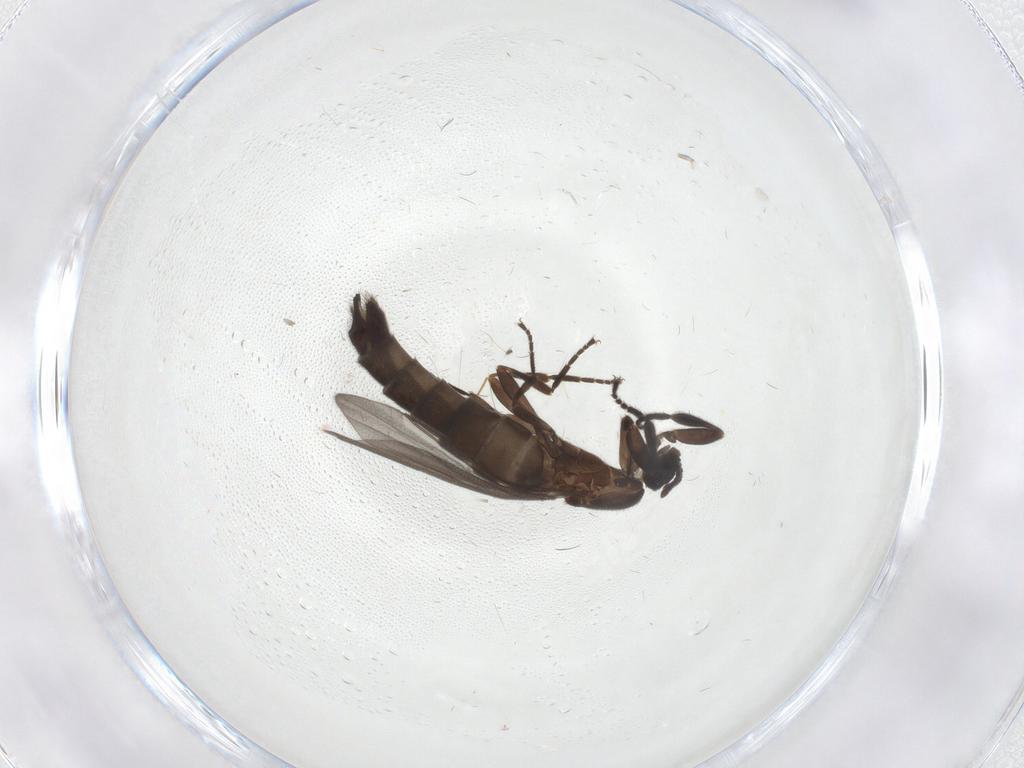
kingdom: Animalia
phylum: Arthropoda
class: Insecta
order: Diptera
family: Scatopsidae
